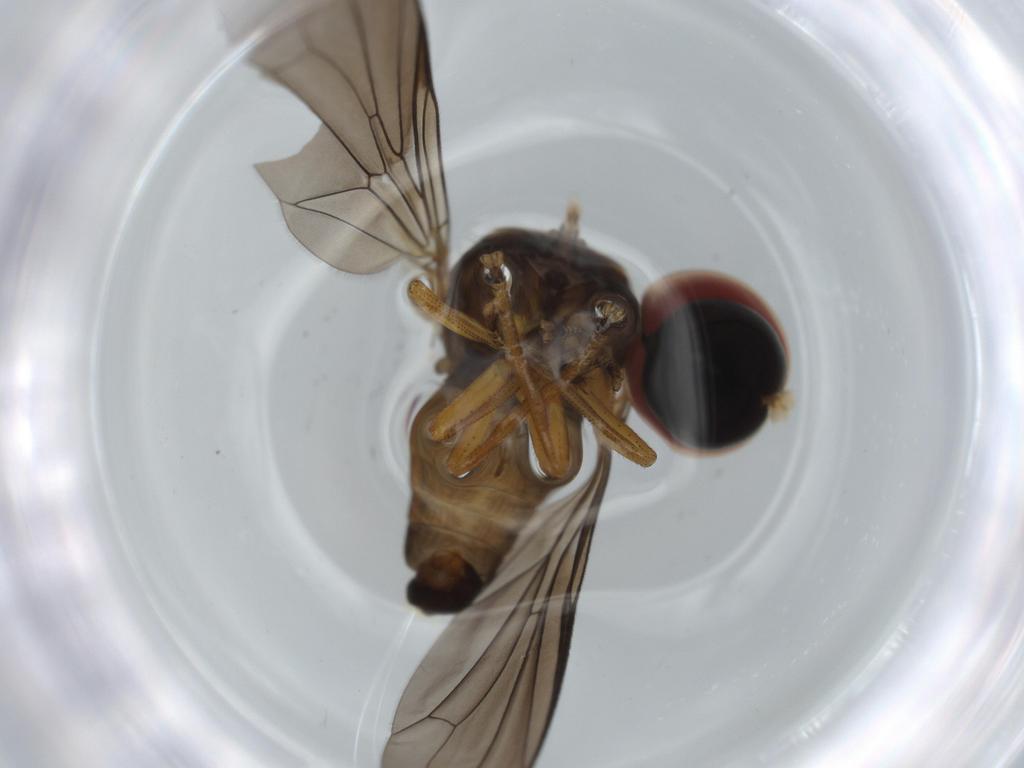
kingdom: Animalia
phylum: Arthropoda
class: Insecta
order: Diptera
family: Pipunculidae
